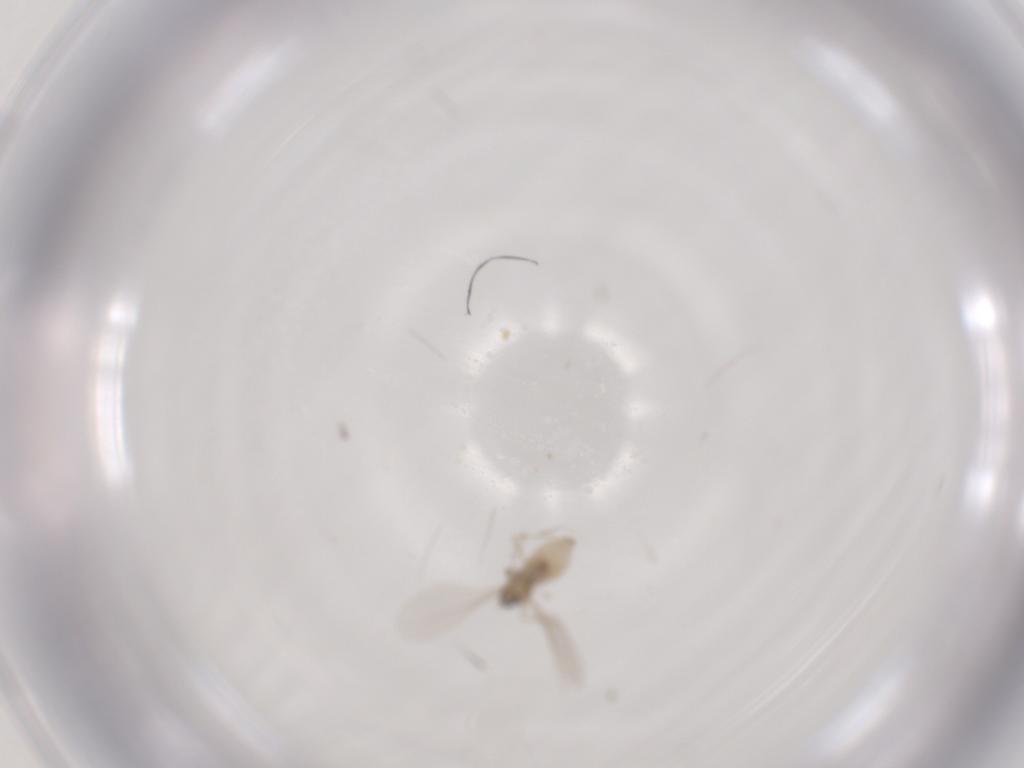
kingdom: Animalia
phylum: Arthropoda
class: Insecta
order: Diptera
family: Cecidomyiidae
